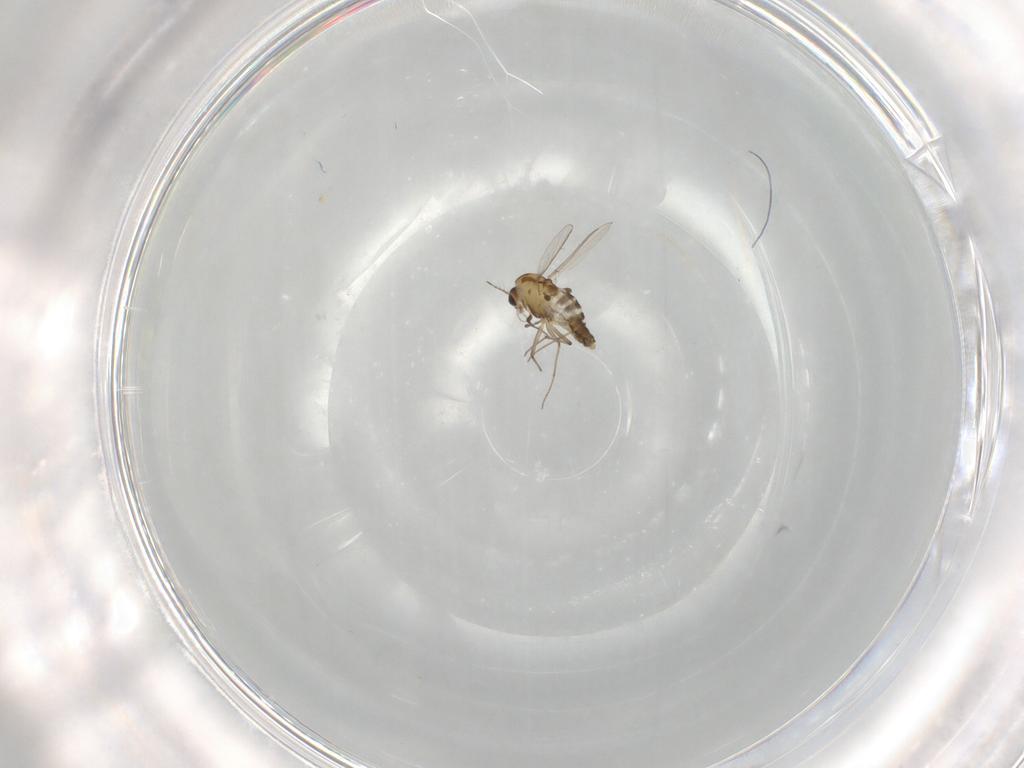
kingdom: Animalia
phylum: Arthropoda
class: Insecta
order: Diptera
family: Chironomidae
